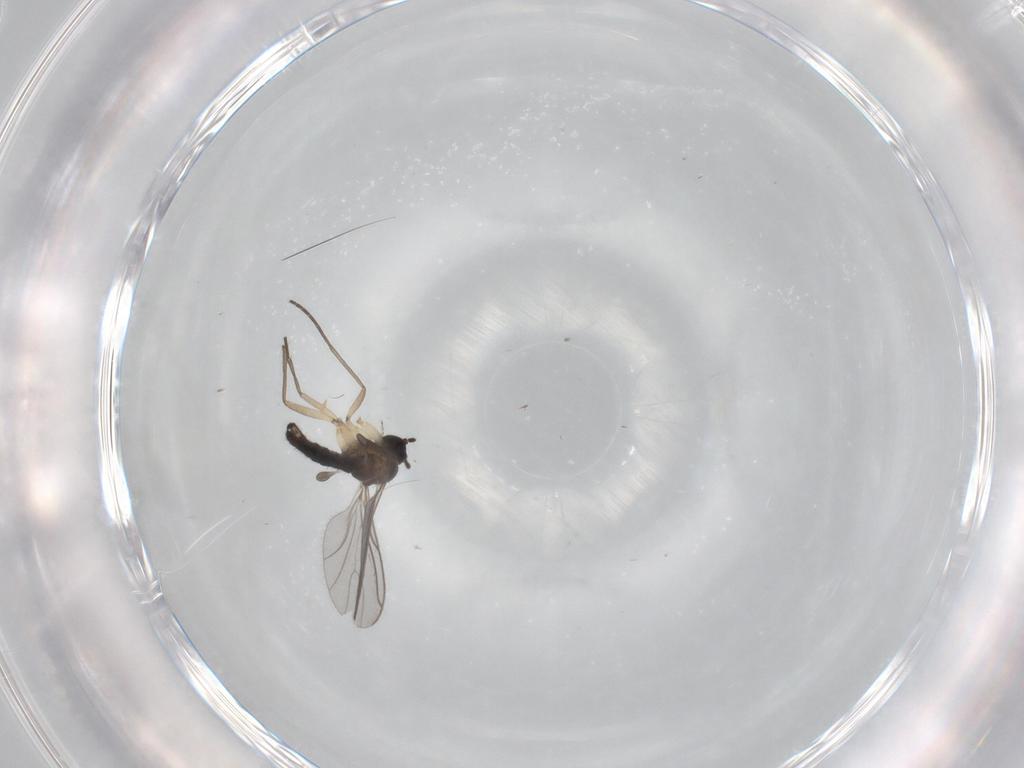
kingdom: Animalia
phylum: Arthropoda
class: Insecta
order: Diptera
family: Sciaridae
